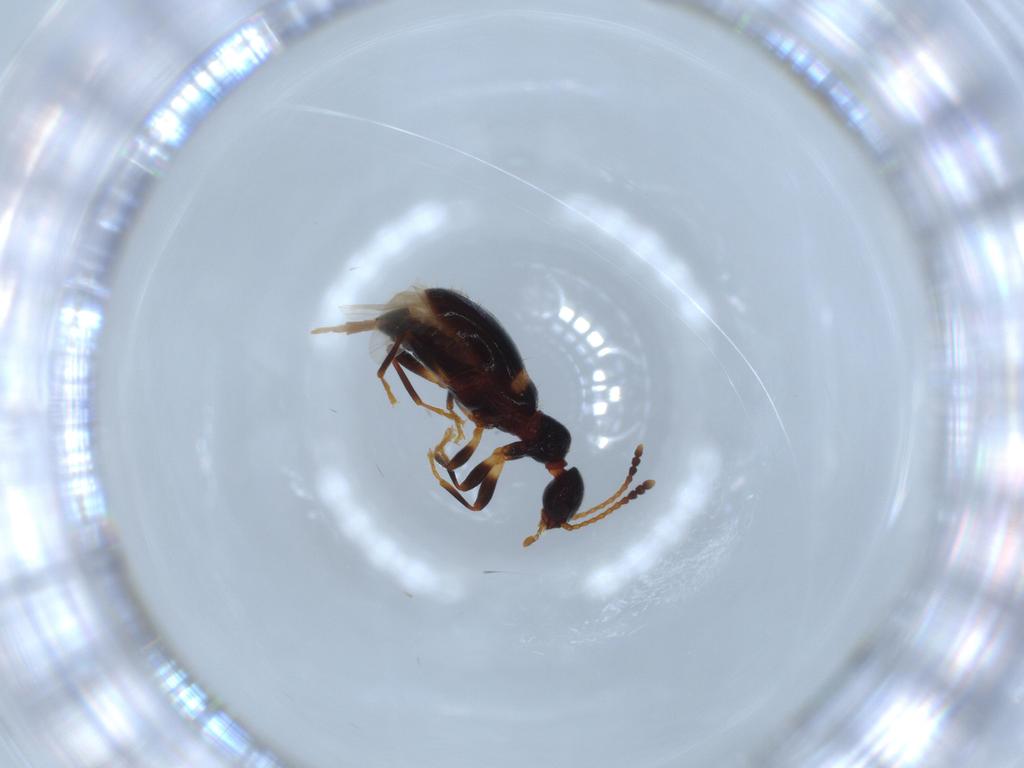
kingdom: Animalia
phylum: Arthropoda
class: Insecta
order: Coleoptera
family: Anthicidae
